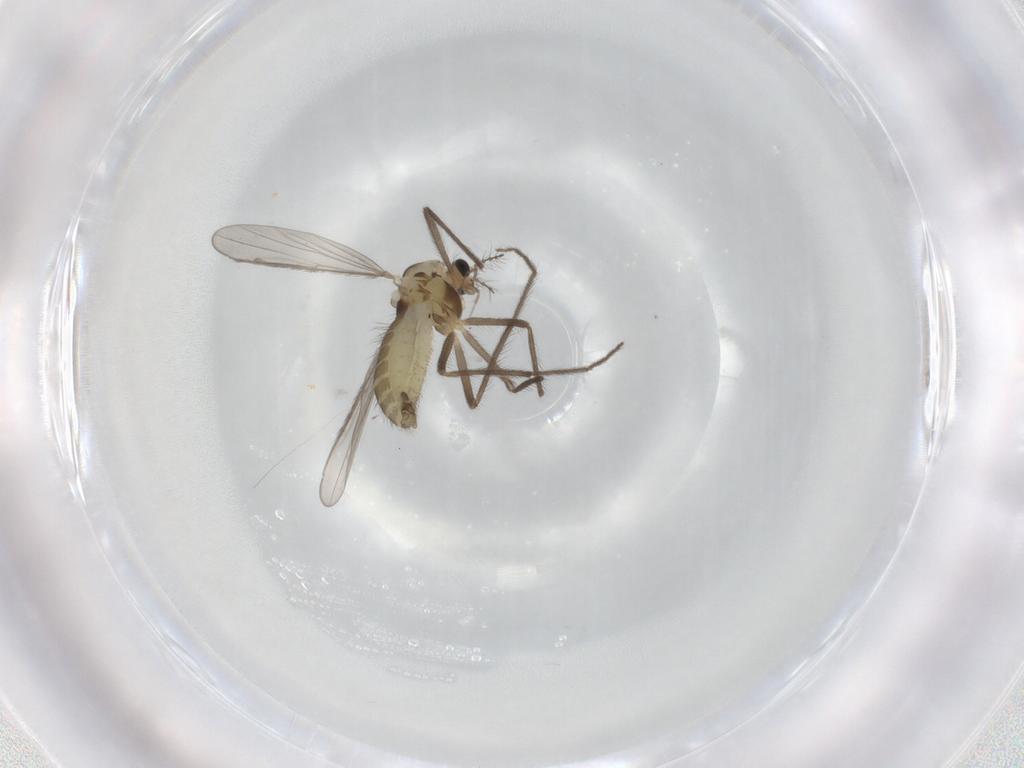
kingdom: Animalia
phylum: Arthropoda
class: Insecta
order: Diptera
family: Chironomidae
